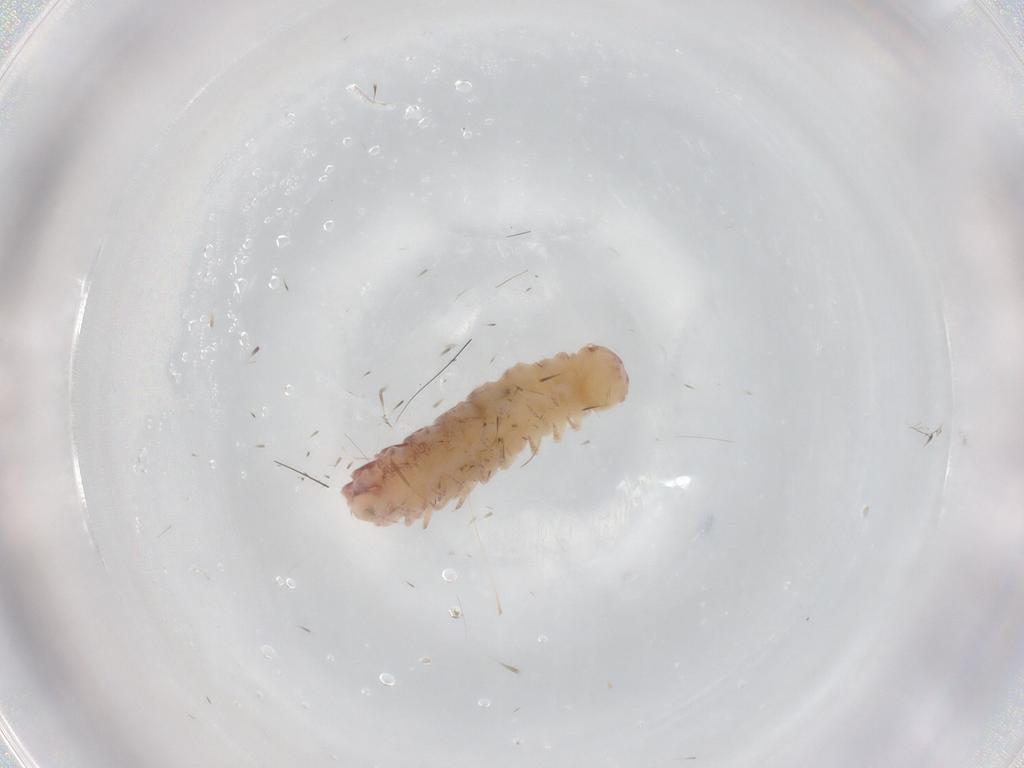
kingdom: Animalia
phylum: Arthropoda
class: Diplopoda
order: Polyxenida
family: Polyxenidae
